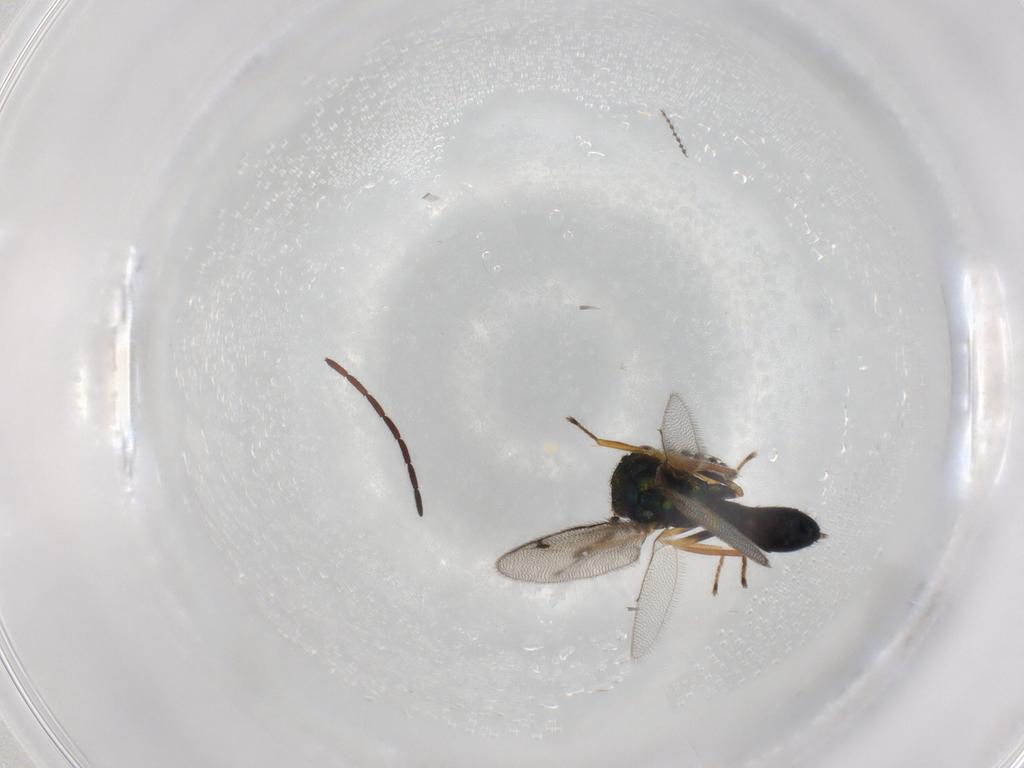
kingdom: Animalia
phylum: Arthropoda
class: Insecta
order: Hymenoptera
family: Pirenidae
